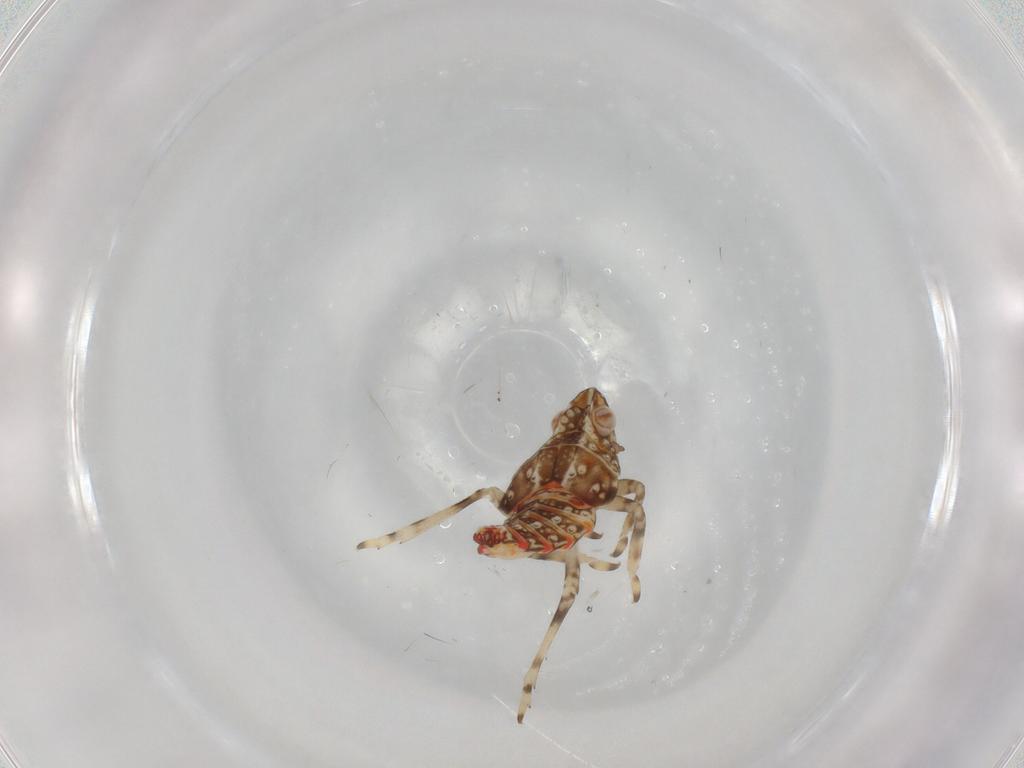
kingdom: Animalia
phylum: Arthropoda
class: Insecta
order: Hemiptera
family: Tropiduchidae
